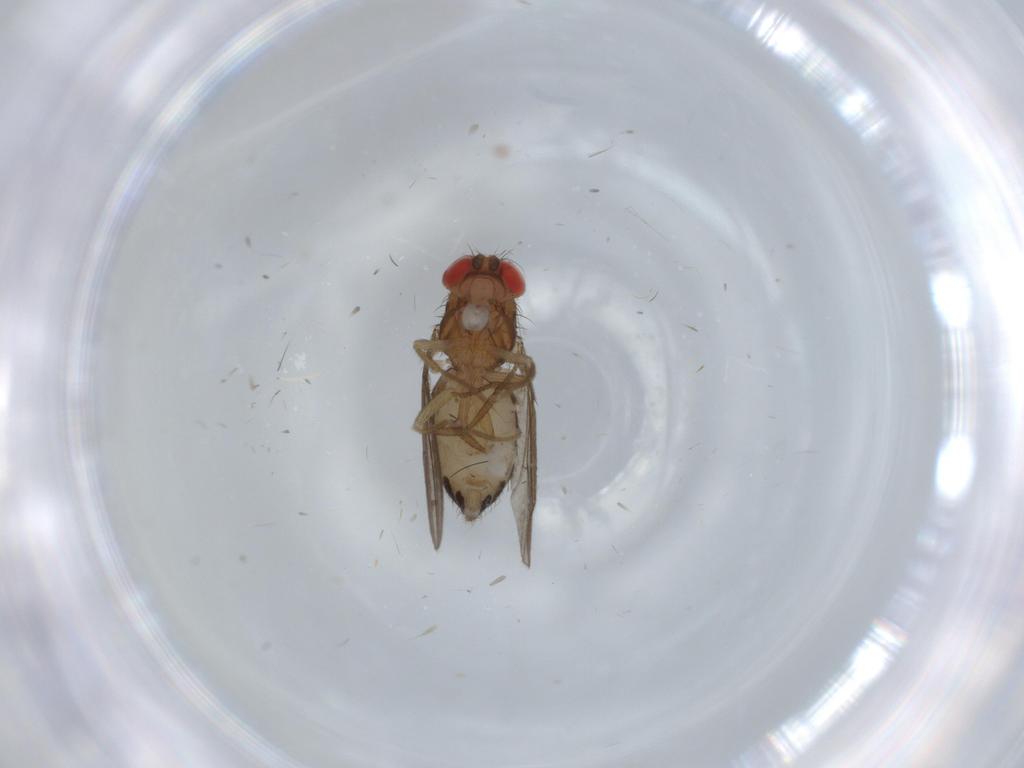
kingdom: Animalia
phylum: Arthropoda
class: Insecta
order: Diptera
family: Drosophilidae
